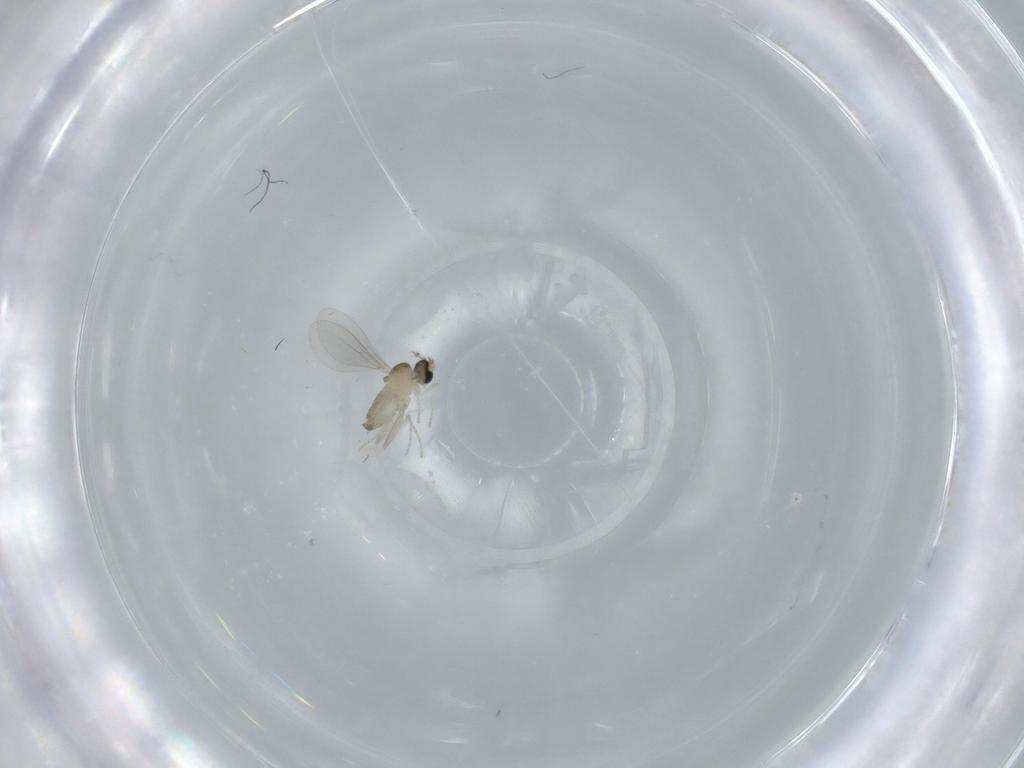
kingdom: Animalia
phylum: Arthropoda
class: Insecta
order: Diptera
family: Cecidomyiidae
